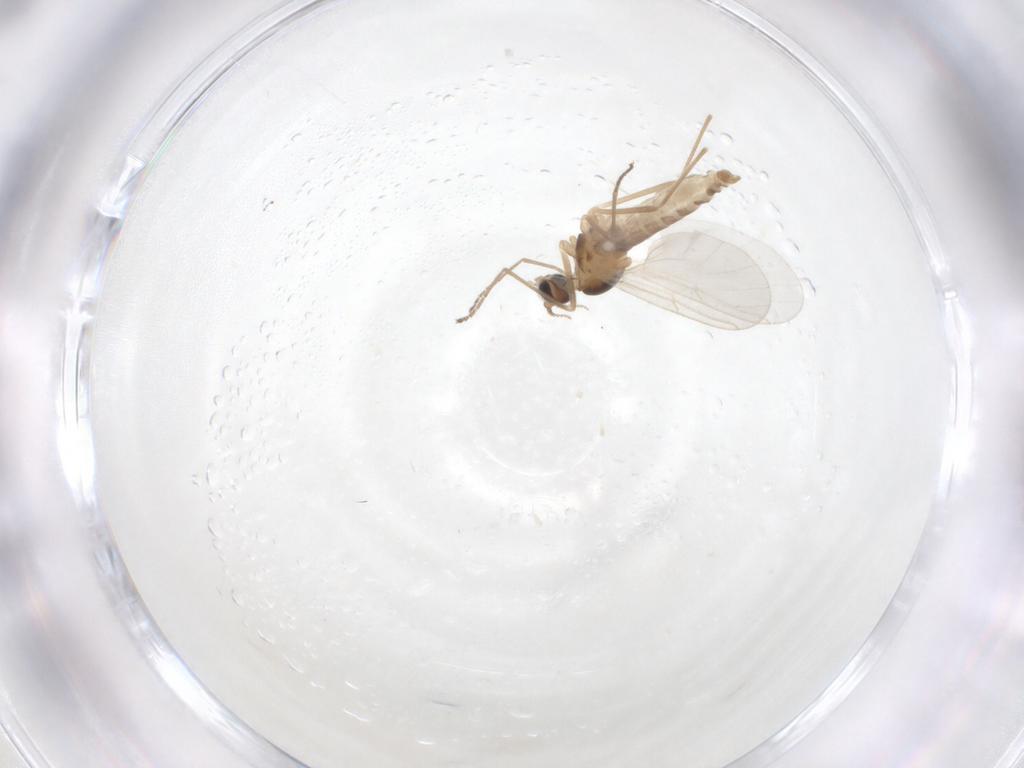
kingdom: Animalia
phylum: Arthropoda
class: Insecta
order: Diptera
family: Cecidomyiidae
